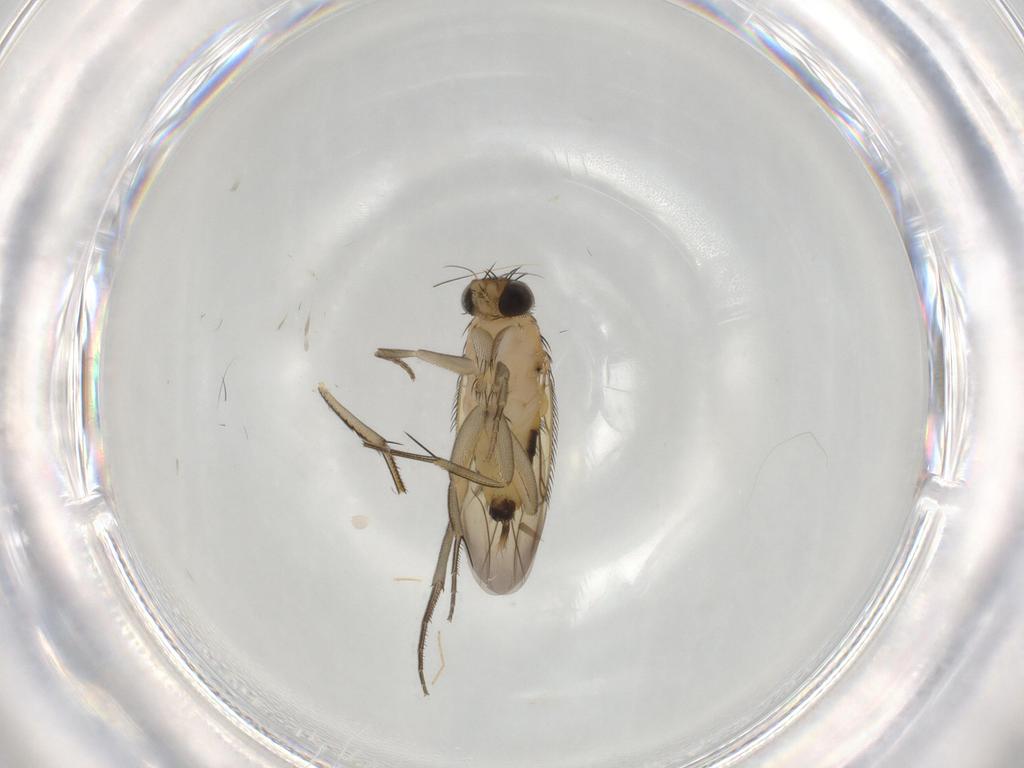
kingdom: Animalia
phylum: Arthropoda
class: Insecta
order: Diptera
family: Phoridae
